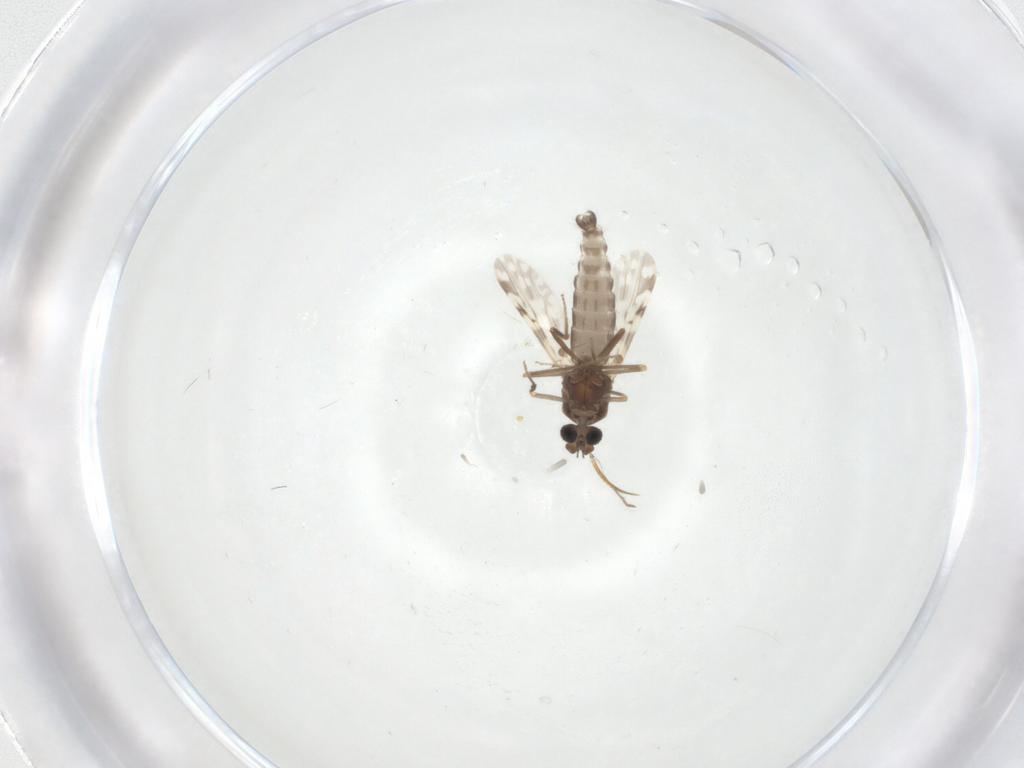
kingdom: Animalia
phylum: Arthropoda
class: Insecta
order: Diptera
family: Ceratopogonidae
